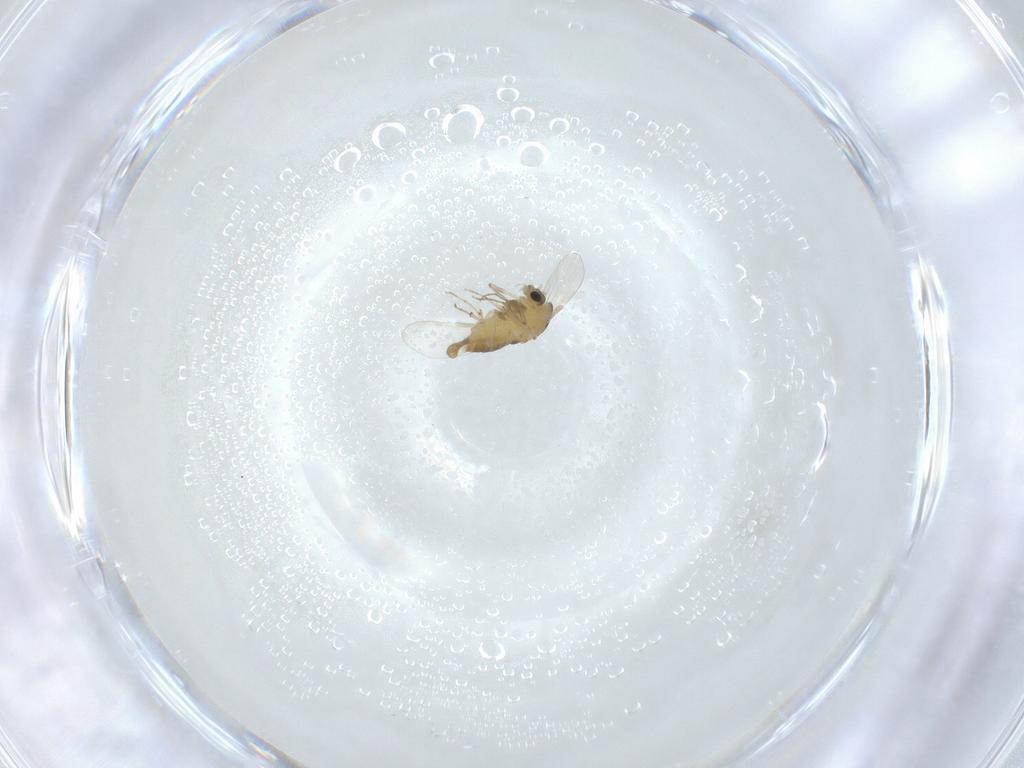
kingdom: Animalia
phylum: Arthropoda
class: Insecta
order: Diptera
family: Chironomidae
